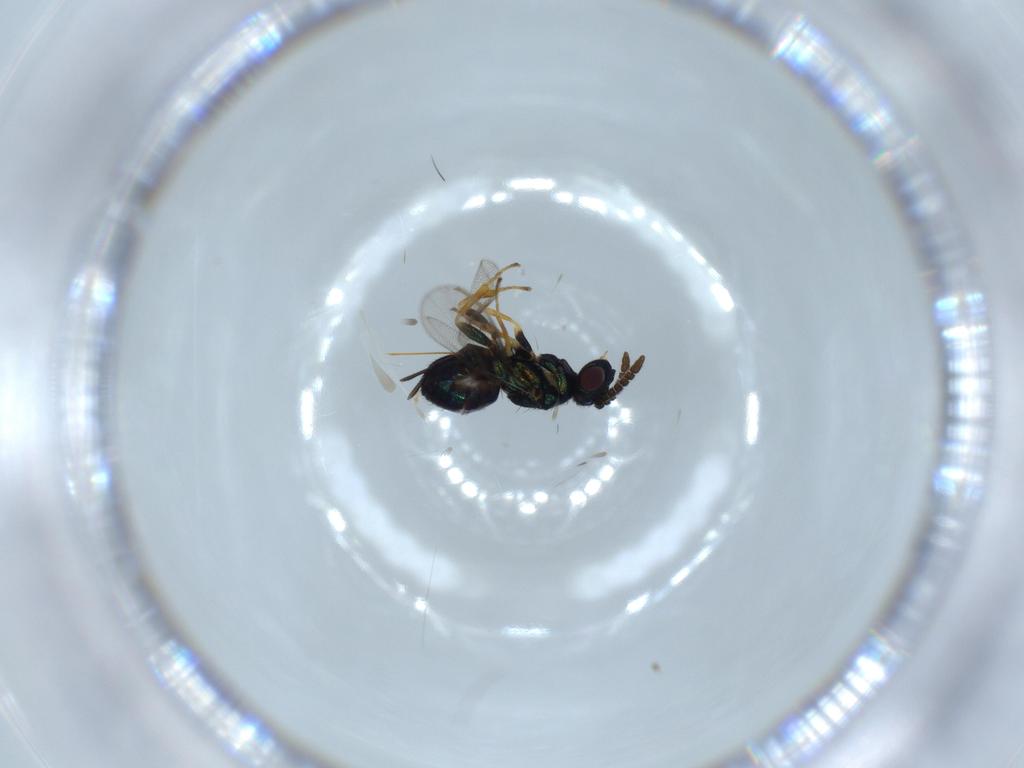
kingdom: Animalia
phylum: Arthropoda
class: Insecta
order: Hymenoptera
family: Pteromalidae
